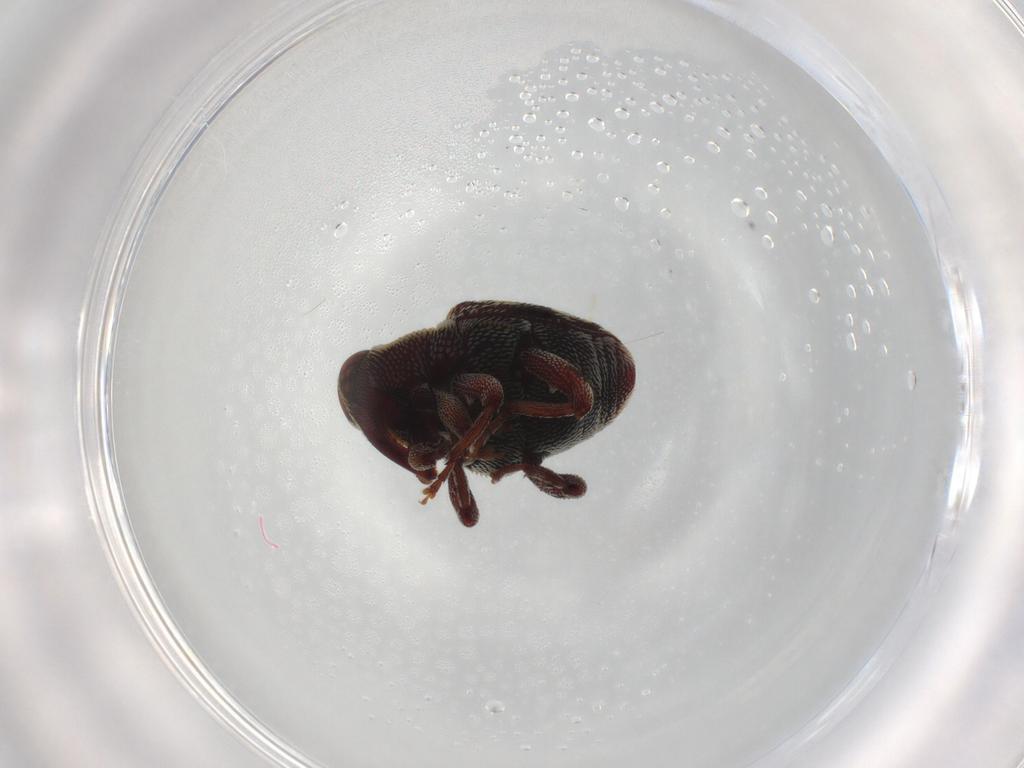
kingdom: Animalia
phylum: Arthropoda
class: Insecta
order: Coleoptera
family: Curculionidae
